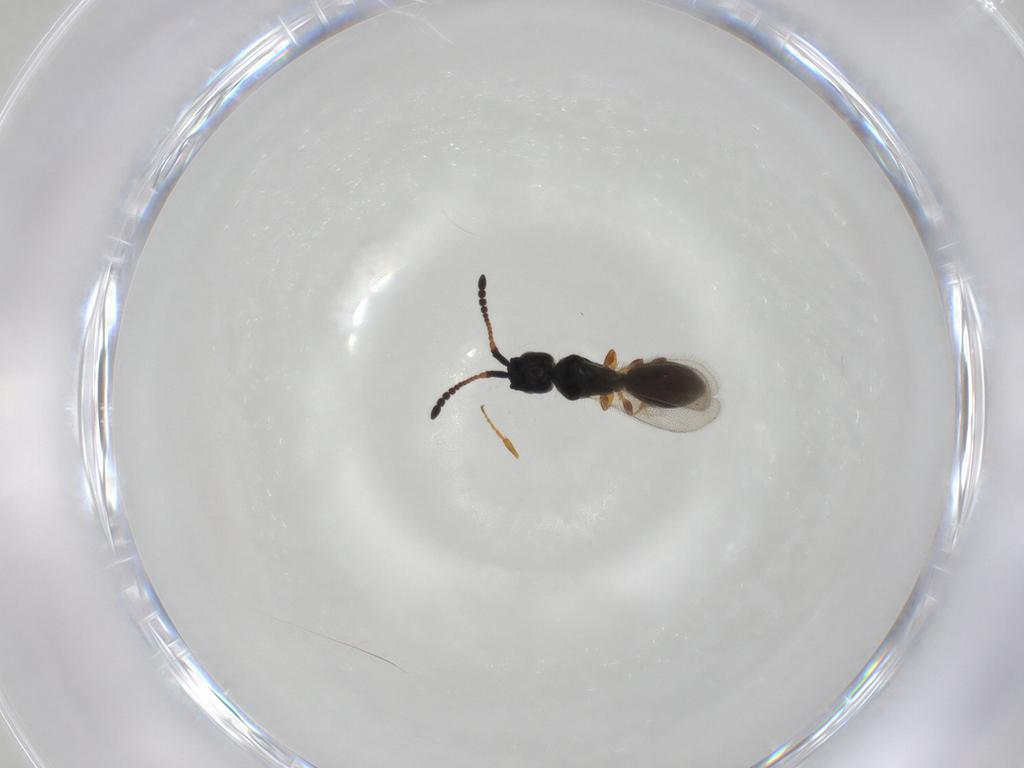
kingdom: Animalia
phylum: Arthropoda
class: Insecta
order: Hymenoptera
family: Diapriidae
